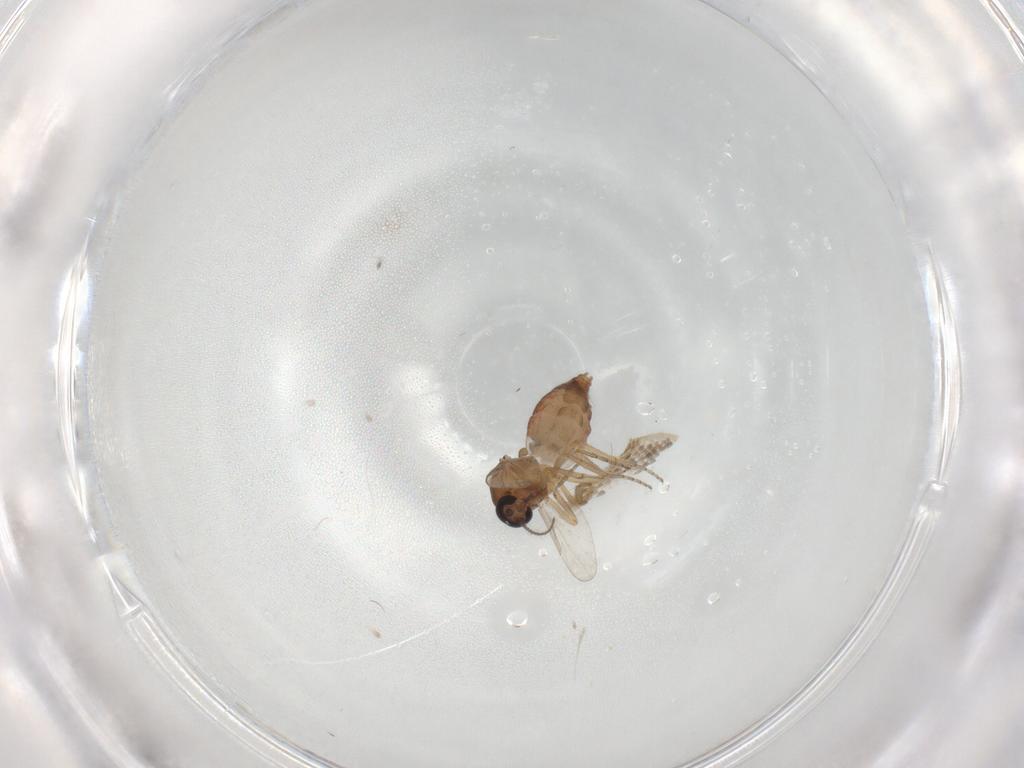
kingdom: Animalia
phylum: Arthropoda
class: Insecta
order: Diptera
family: Ceratopogonidae
